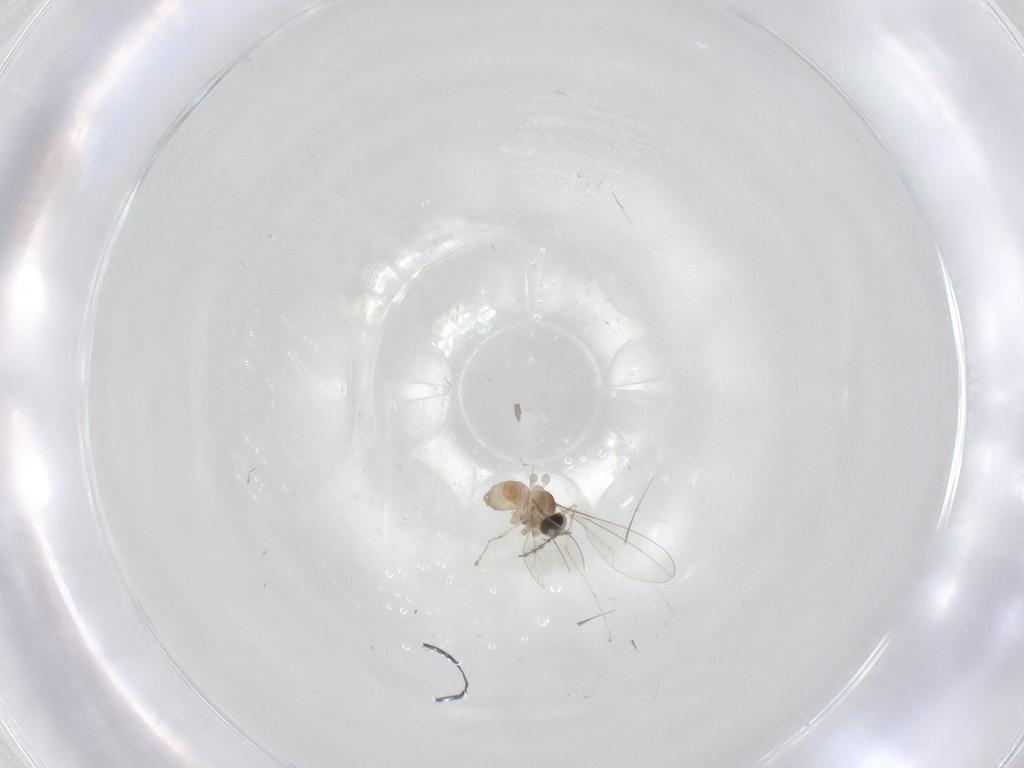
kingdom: Animalia
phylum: Arthropoda
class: Insecta
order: Diptera
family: Cecidomyiidae
